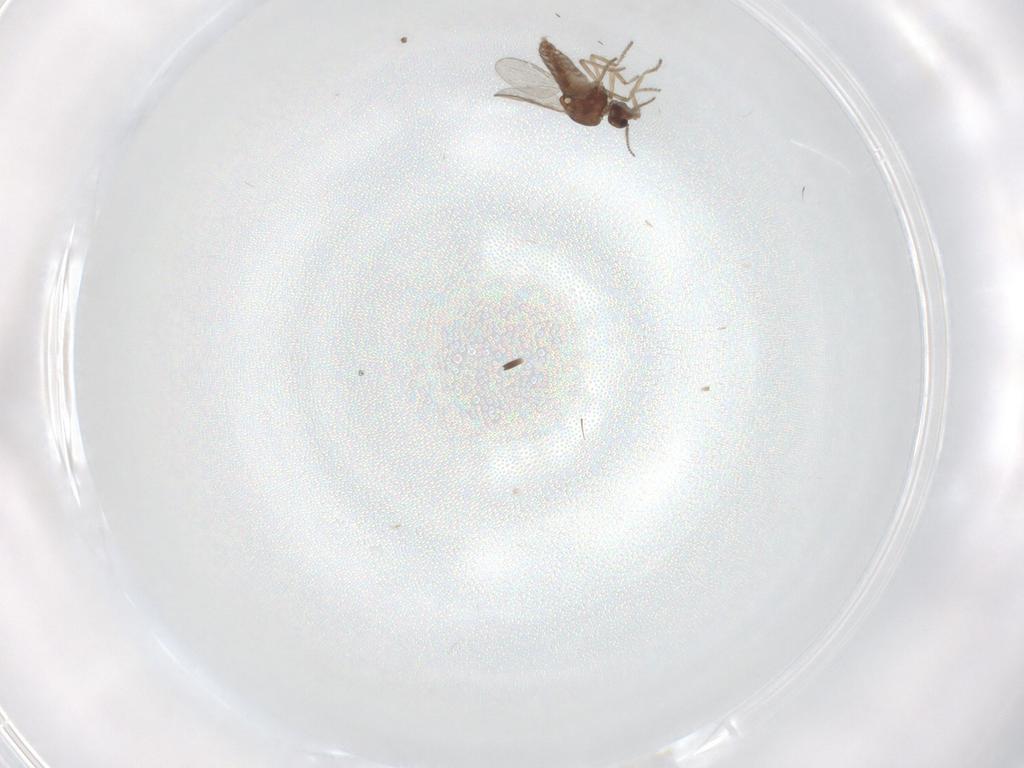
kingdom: Animalia
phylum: Arthropoda
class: Insecta
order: Diptera
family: Ceratopogonidae
